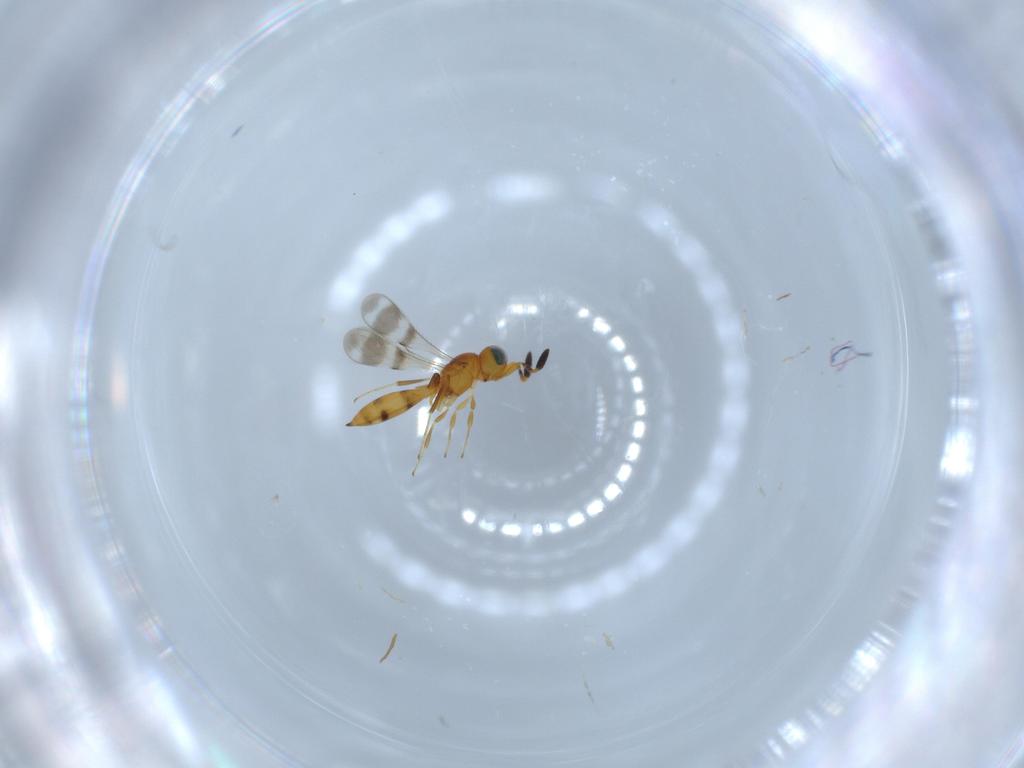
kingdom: Animalia
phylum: Arthropoda
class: Insecta
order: Hymenoptera
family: Scelionidae
